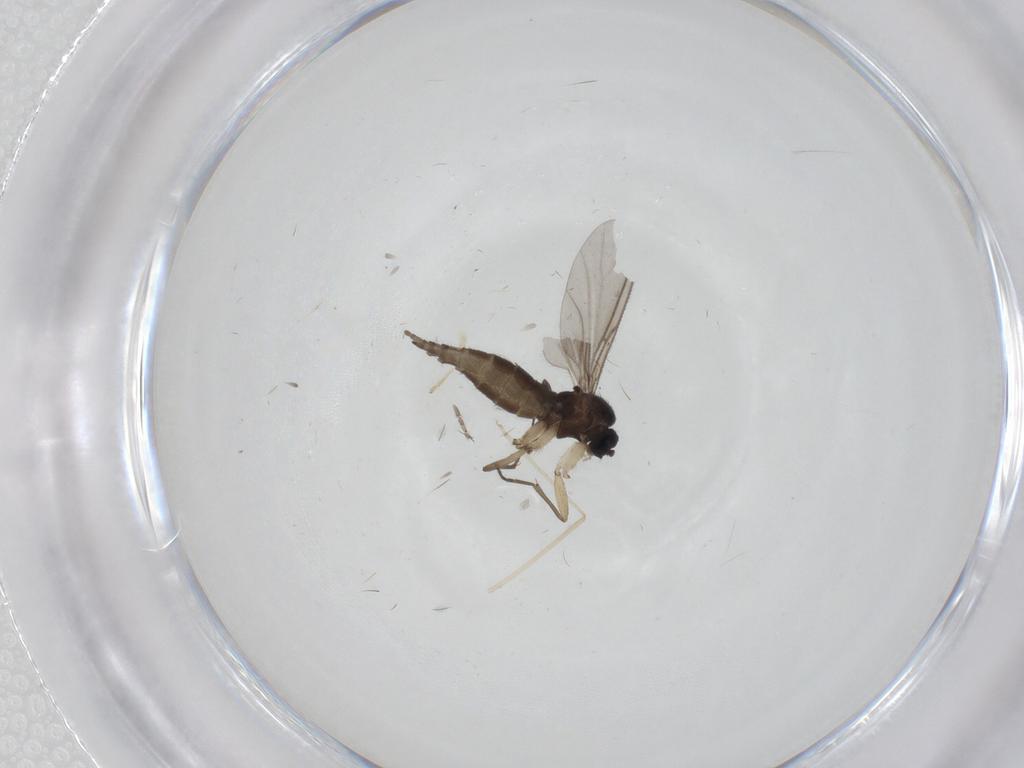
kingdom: Animalia
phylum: Arthropoda
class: Insecta
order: Diptera
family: Sciaridae
